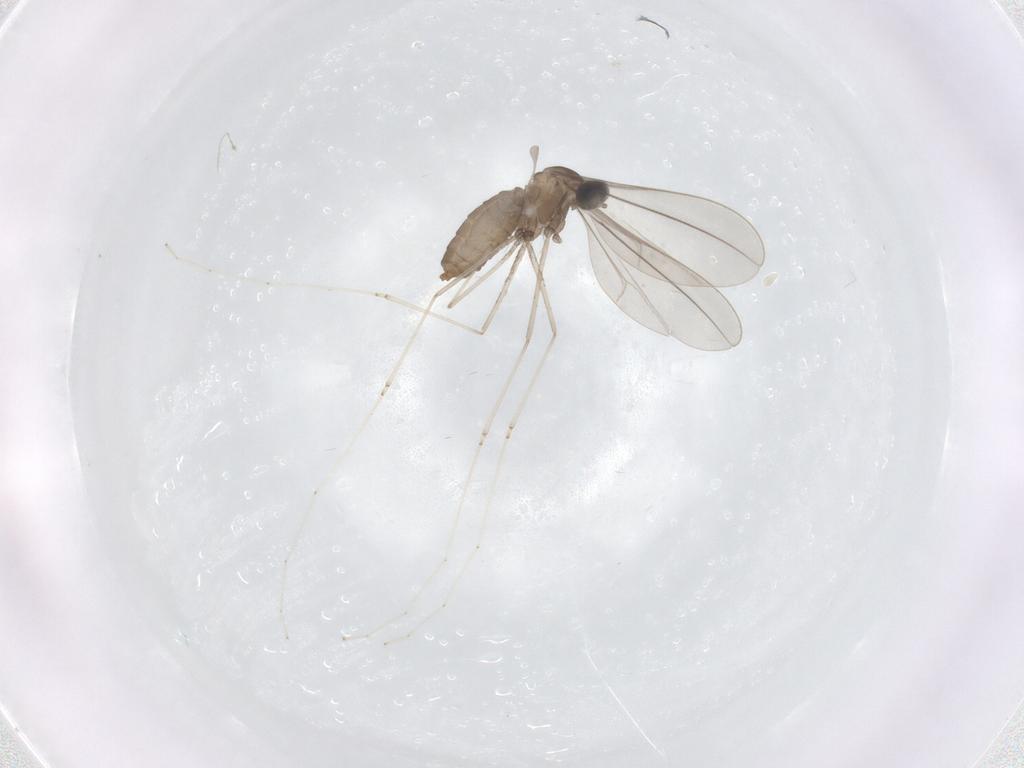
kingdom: Animalia
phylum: Arthropoda
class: Insecta
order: Diptera
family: Cecidomyiidae
